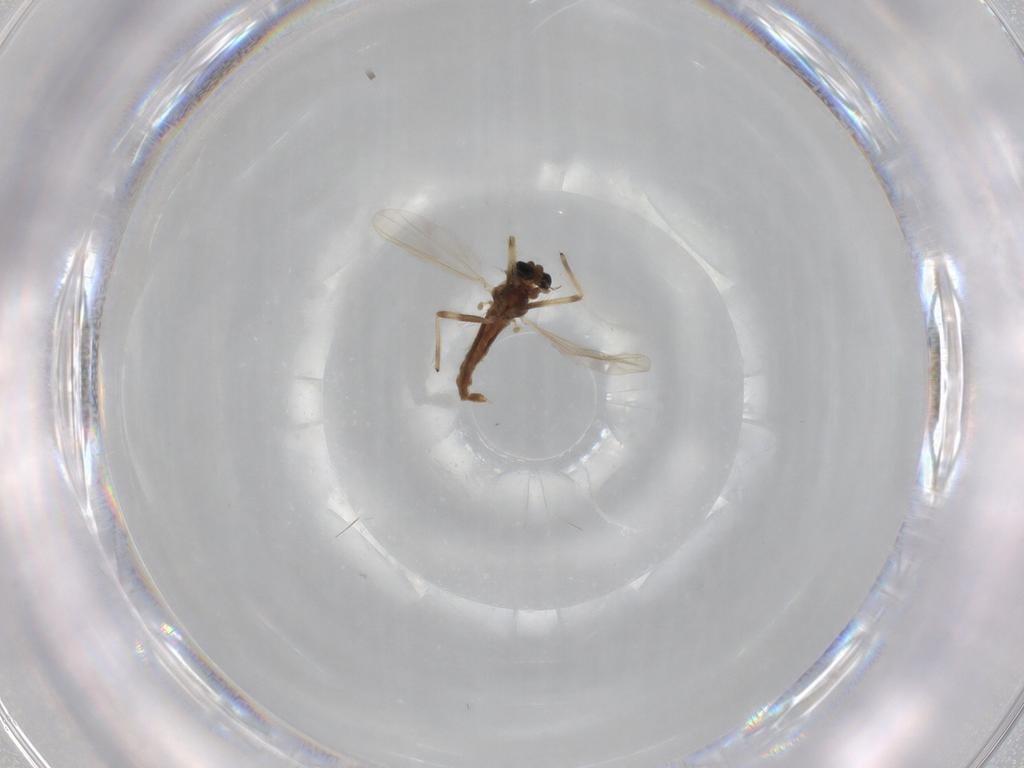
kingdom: Animalia
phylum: Arthropoda
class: Insecta
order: Diptera
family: Chironomidae
